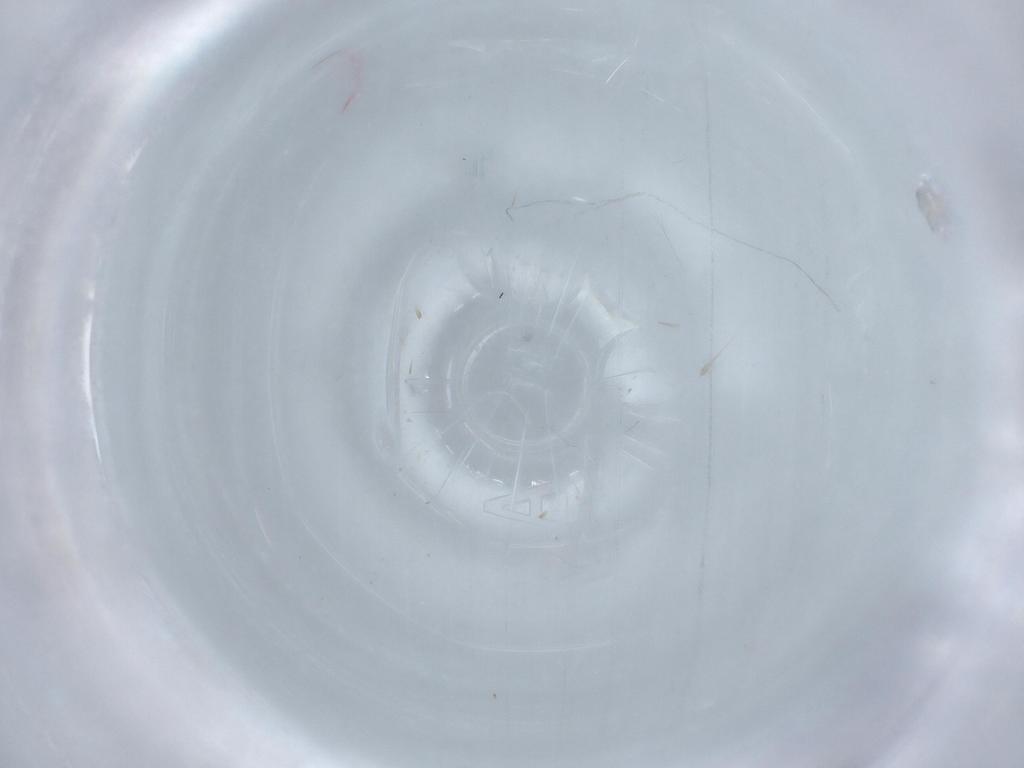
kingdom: Animalia
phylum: Arthropoda
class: Insecta
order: Hymenoptera
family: Trichogrammatidae
